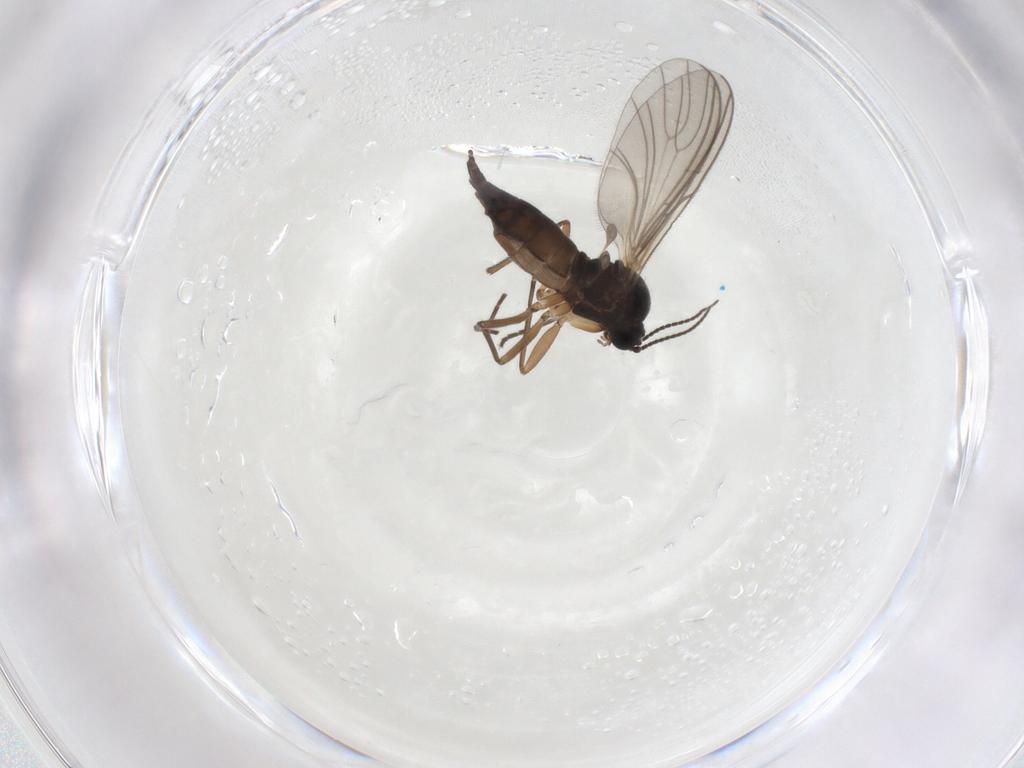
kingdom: Animalia
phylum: Arthropoda
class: Insecta
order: Diptera
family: Sciaridae
